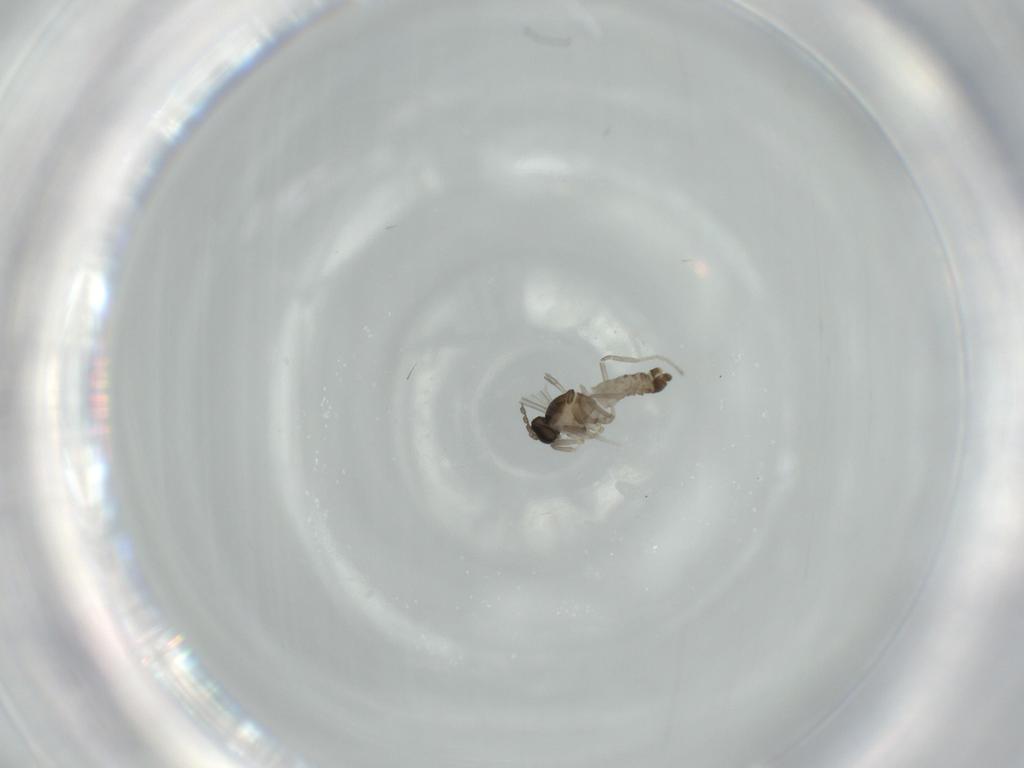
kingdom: Animalia
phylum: Arthropoda
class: Insecta
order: Diptera
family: Cecidomyiidae
